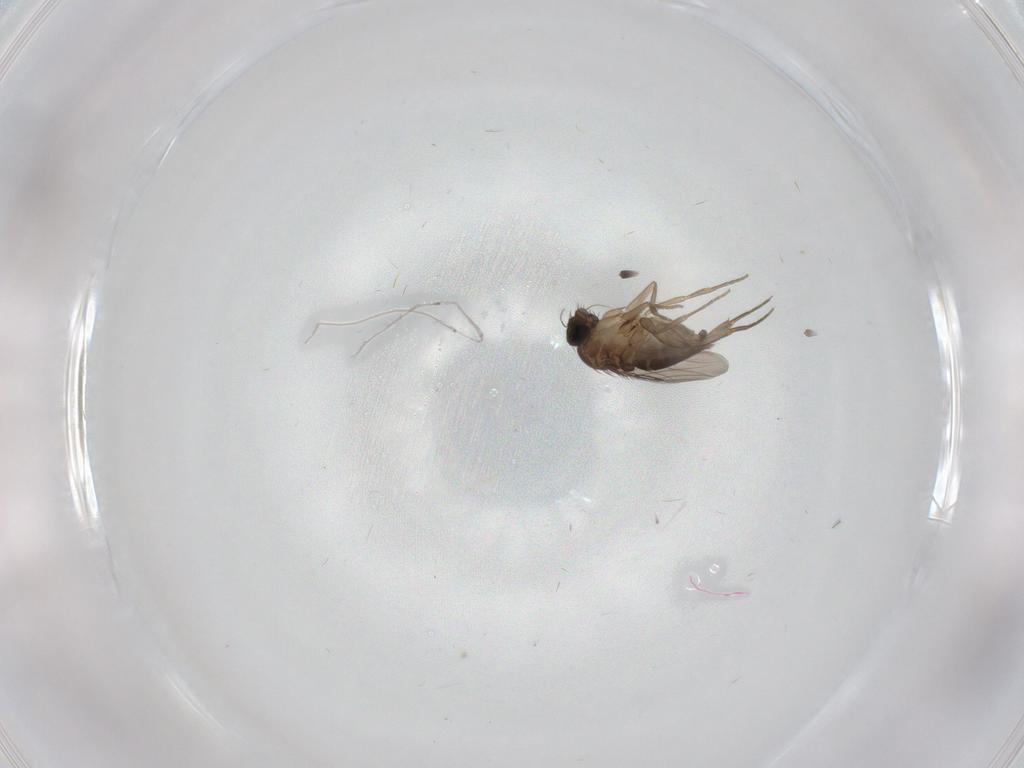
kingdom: Animalia
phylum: Arthropoda
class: Insecta
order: Diptera
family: Phoridae
